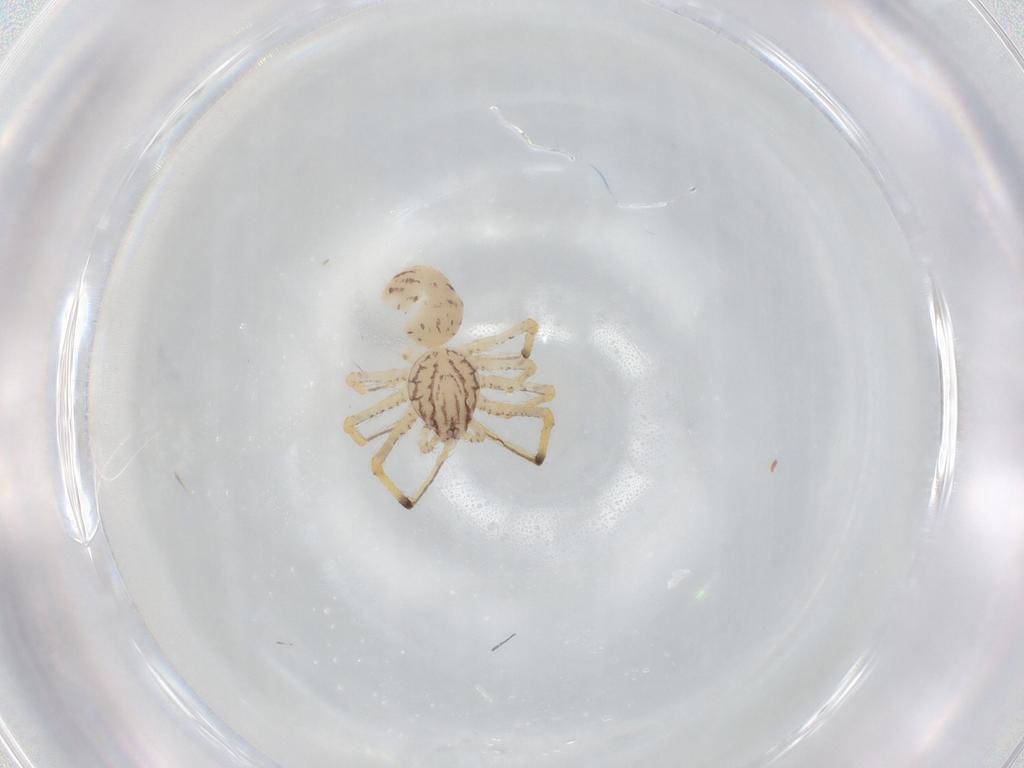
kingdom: Animalia
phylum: Arthropoda
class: Arachnida
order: Araneae
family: Scytodidae
